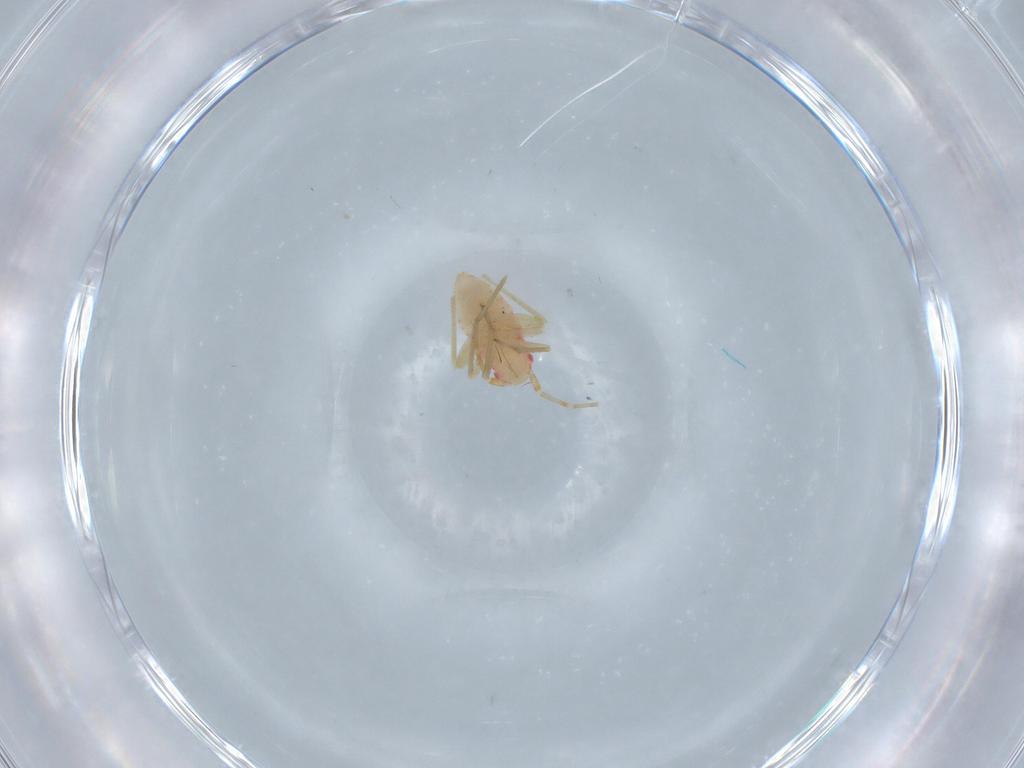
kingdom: Animalia
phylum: Arthropoda
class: Insecta
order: Hemiptera
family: Miridae
